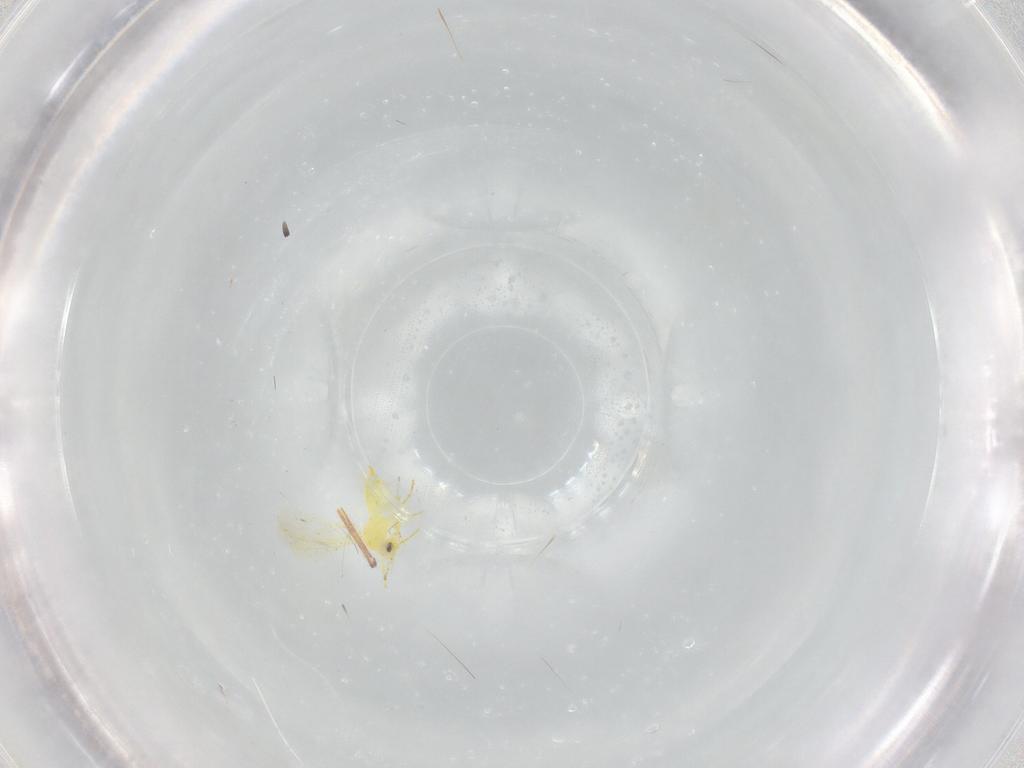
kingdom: Animalia
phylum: Arthropoda
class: Insecta
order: Hemiptera
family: Aleyrodidae
